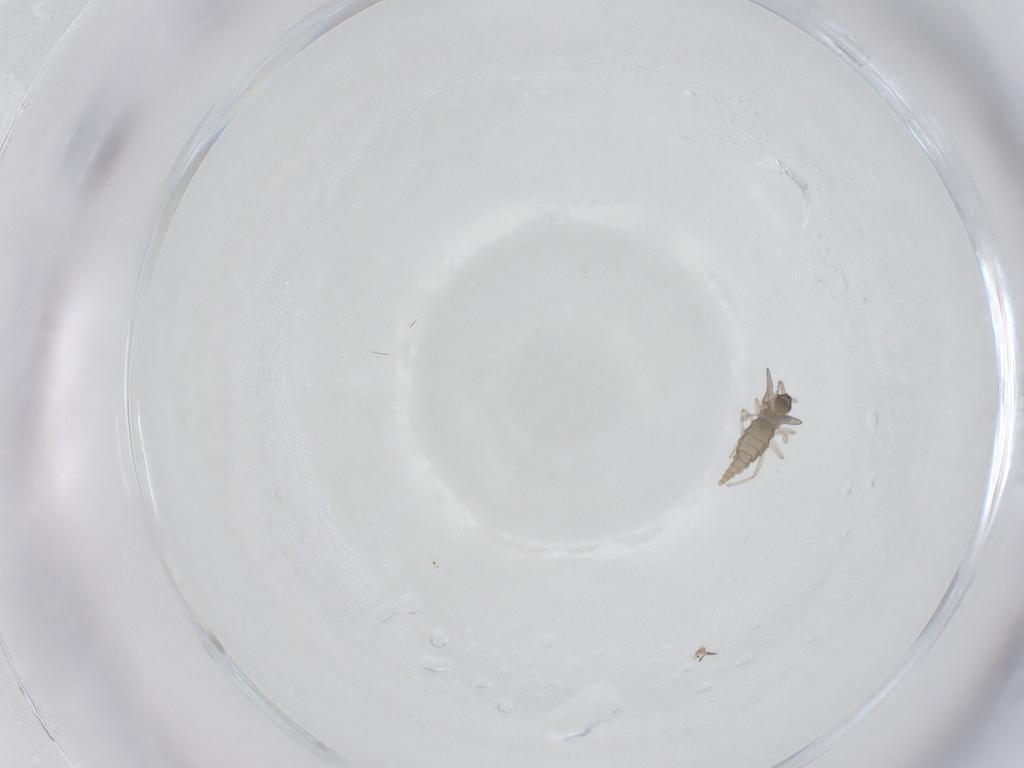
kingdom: Animalia
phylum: Arthropoda
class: Insecta
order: Diptera
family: Cecidomyiidae
